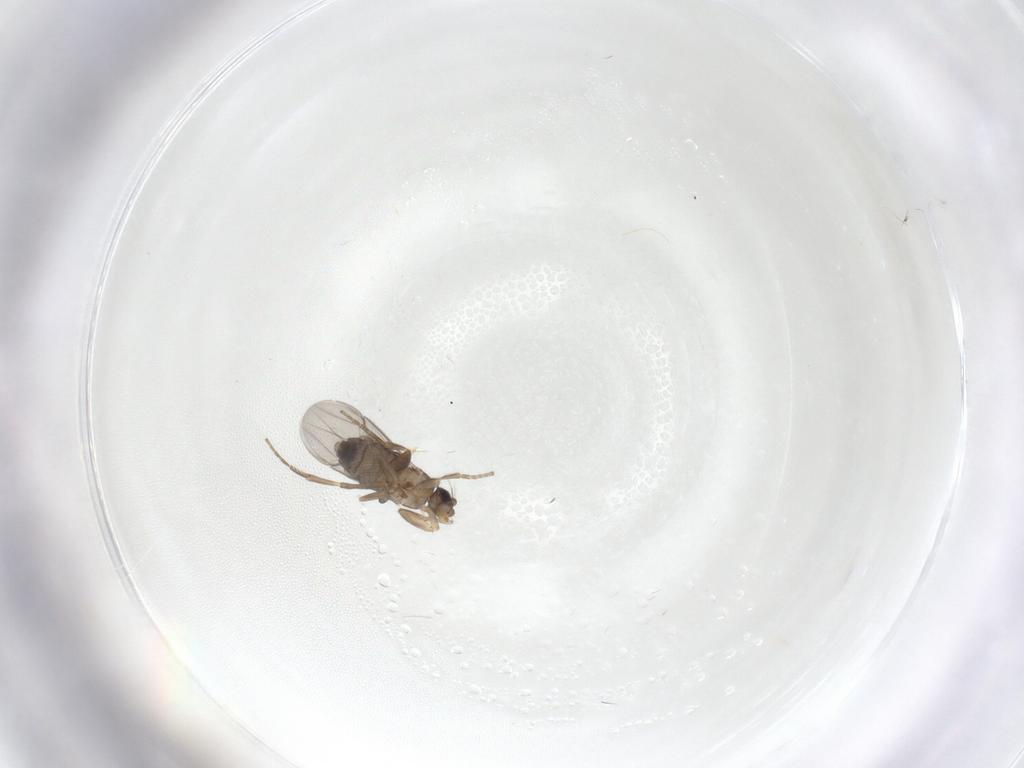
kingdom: Animalia
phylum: Arthropoda
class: Insecta
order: Diptera
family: Phoridae
